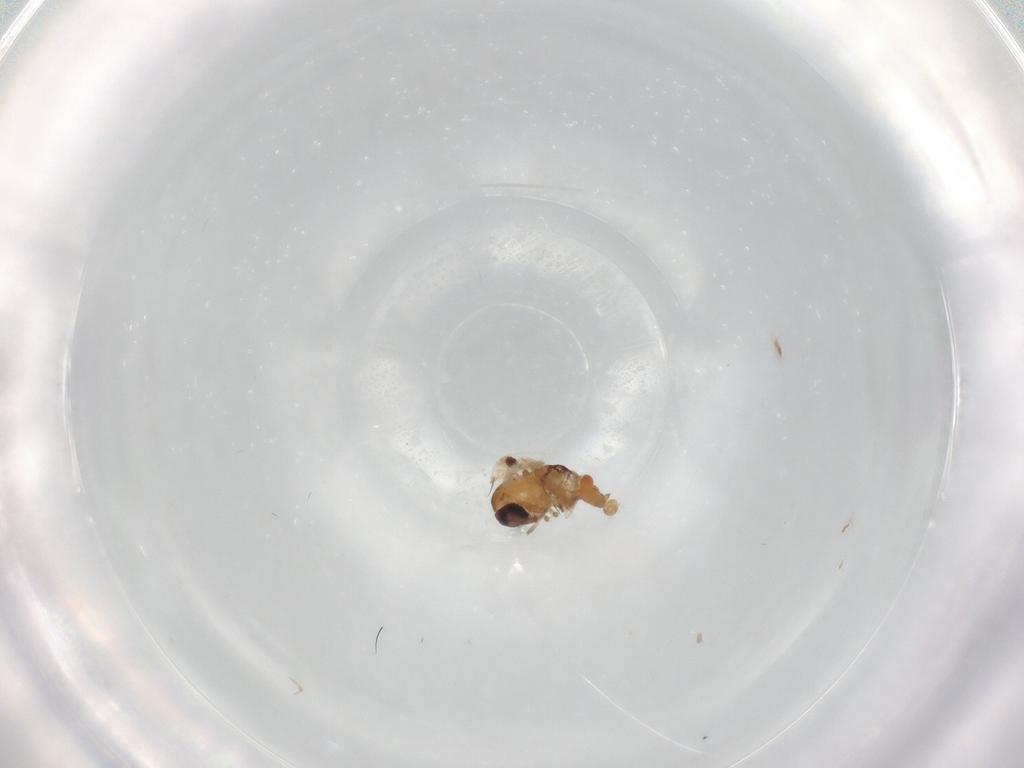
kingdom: Animalia
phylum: Arthropoda
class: Insecta
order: Diptera
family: Psychodidae
